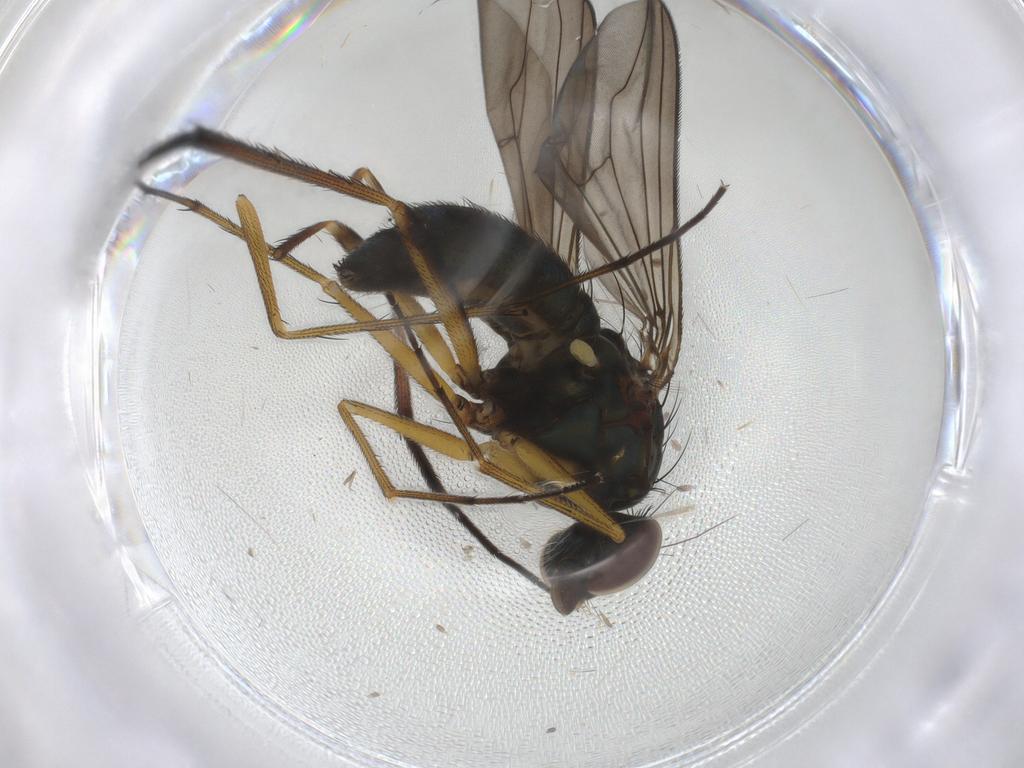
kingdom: Animalia
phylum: Arthropoda
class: Insecta
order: Diptera
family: Dolichopodidae
